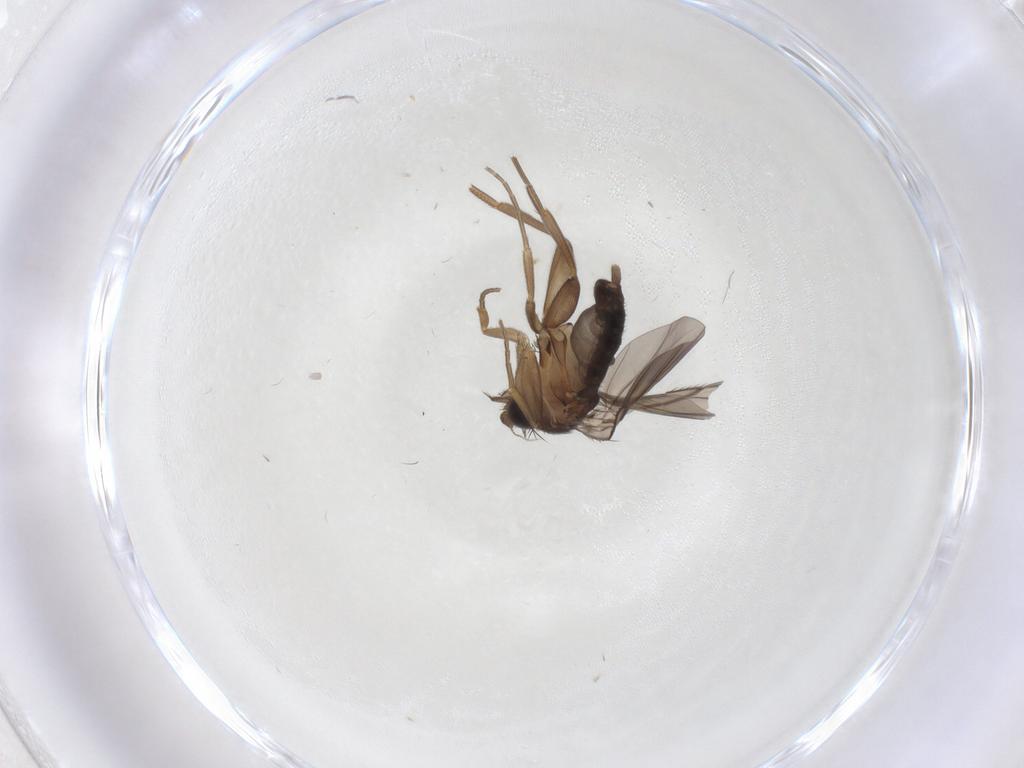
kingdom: Animalia
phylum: Arthropoda
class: Insecta
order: Diptera
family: Phoridae
